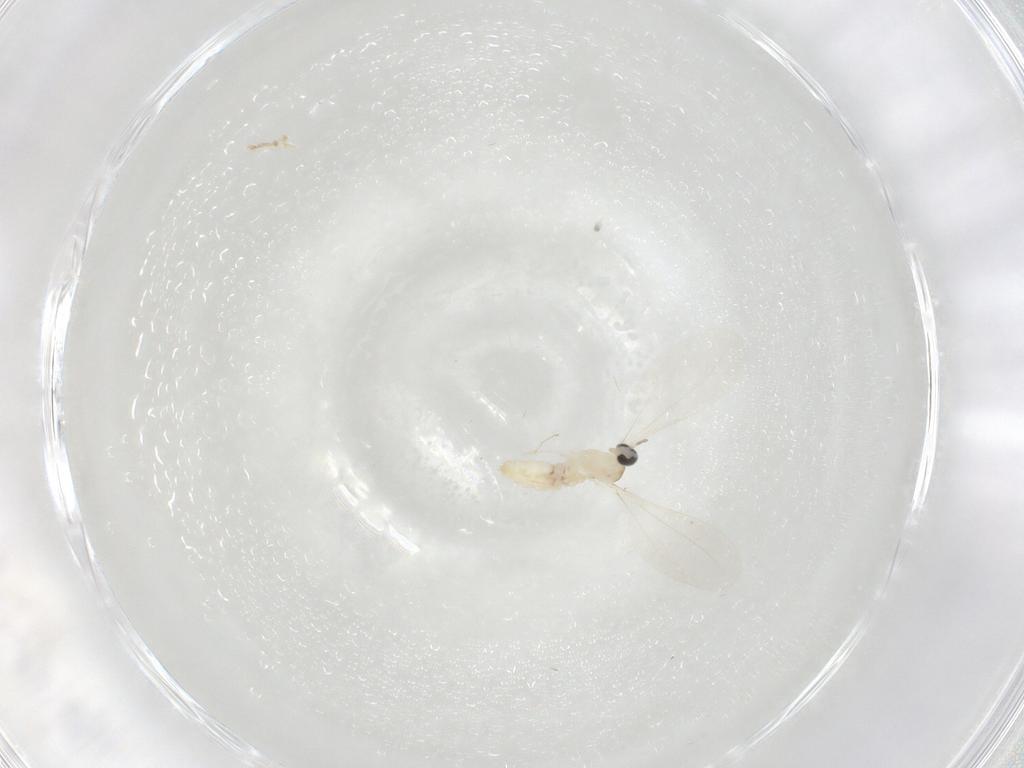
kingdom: Animalia
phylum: Arthropoda
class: Insecta
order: Diptera
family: Cecidomyiidae
